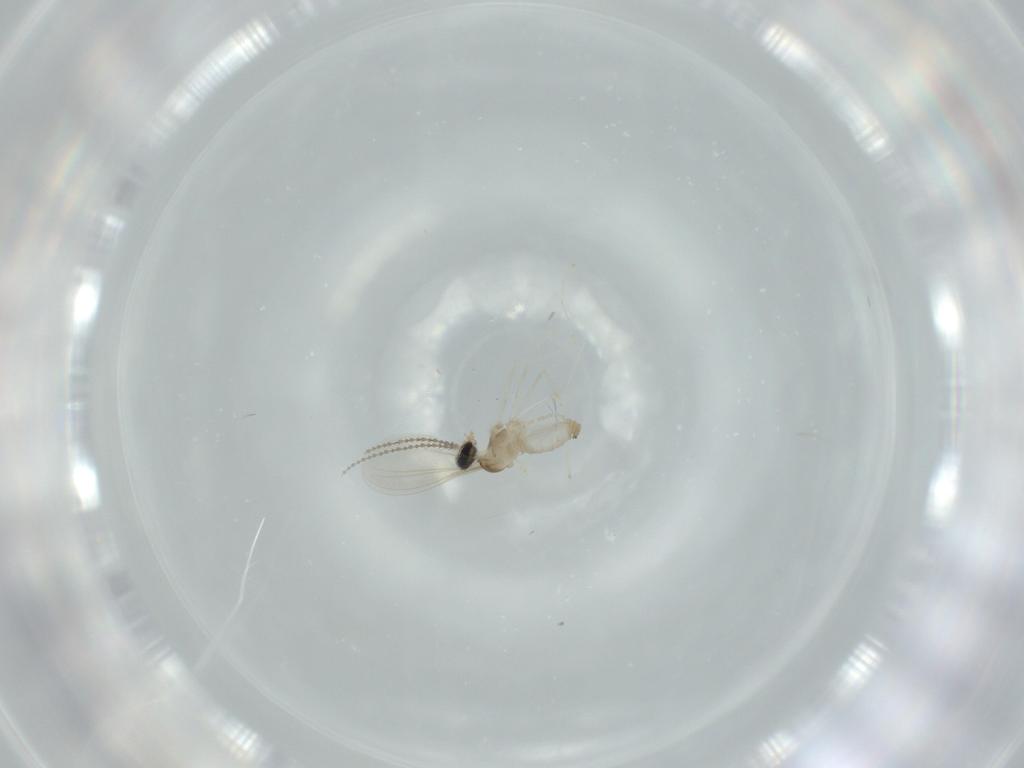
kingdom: Animalia
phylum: Arthropoda
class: Insecta
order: Diptera
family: Cecidomyiidae
